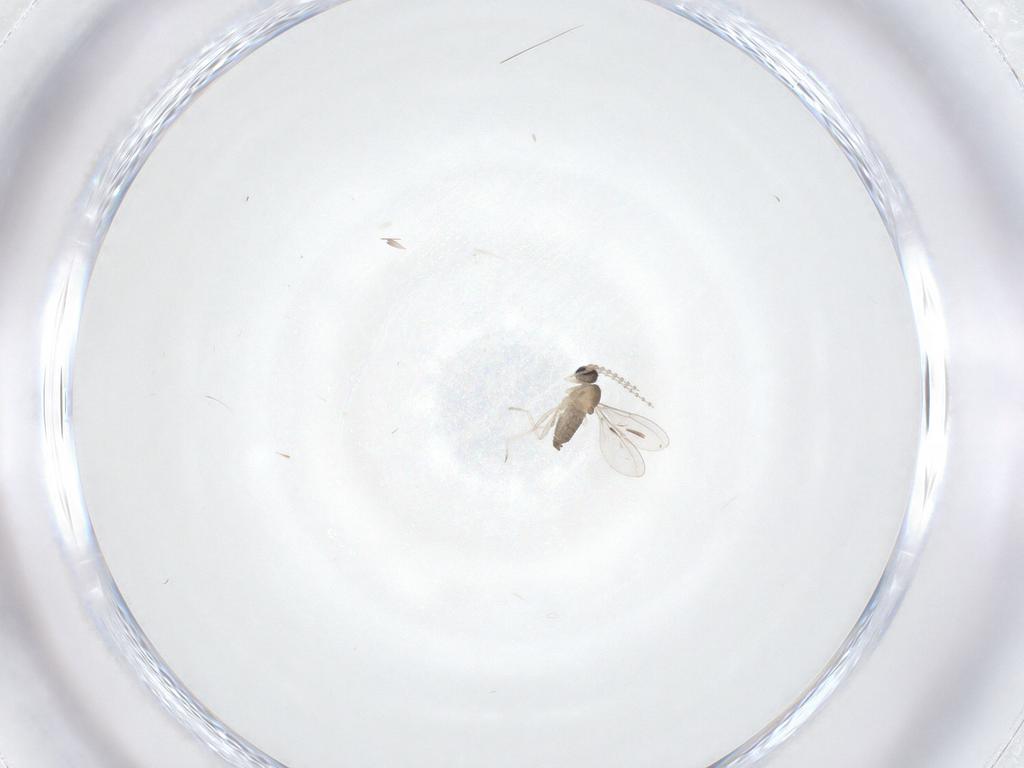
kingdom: Animalia
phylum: Arthropoda
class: Insecta
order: Diptera
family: Cecidomyiidae
